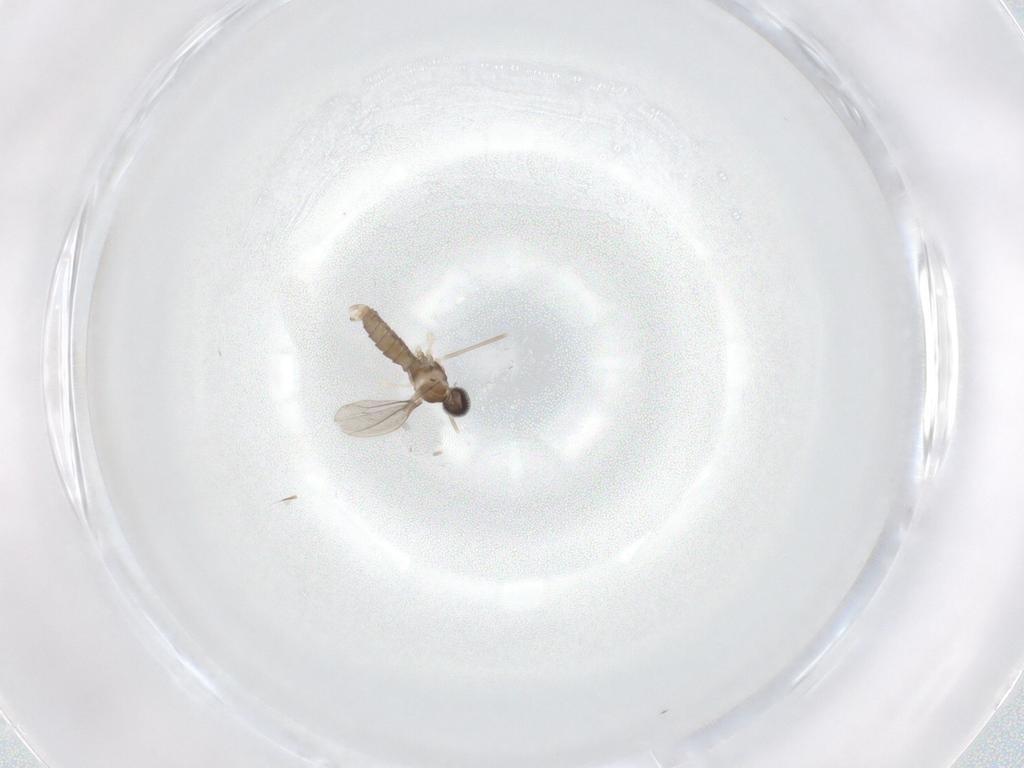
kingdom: Animalia
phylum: Arthropoda
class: Insecta
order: Diptera
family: Cecidomyiidae
